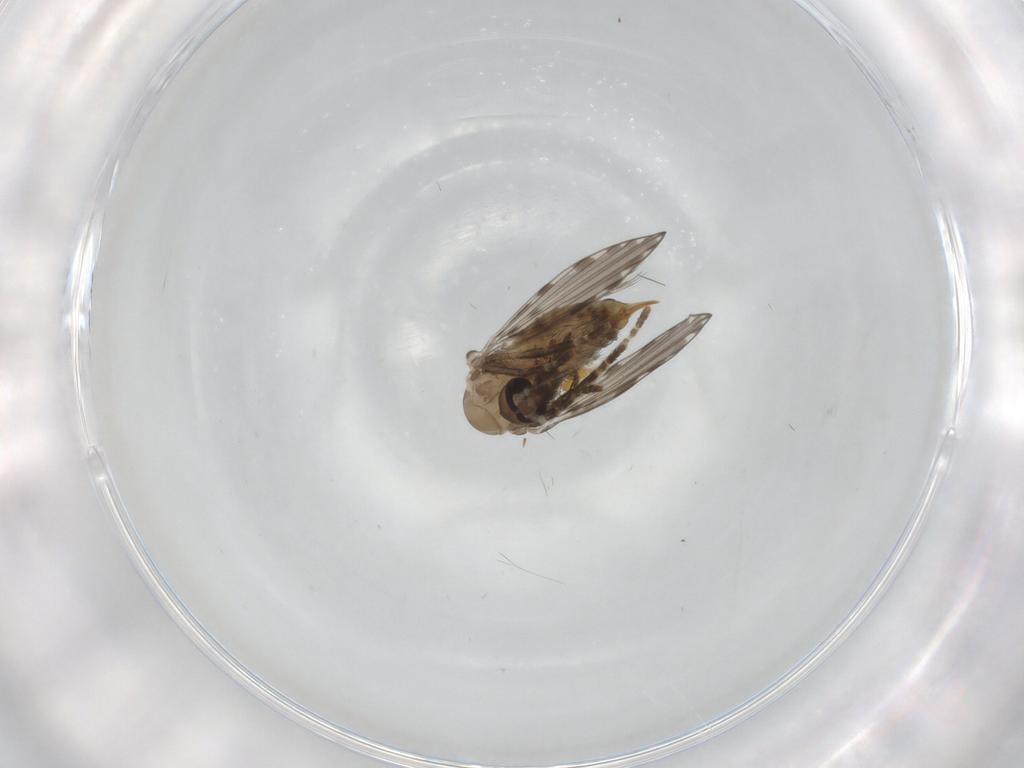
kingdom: Animalia
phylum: Arthropoda
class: Insecta
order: Diptera
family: Psychodidae
